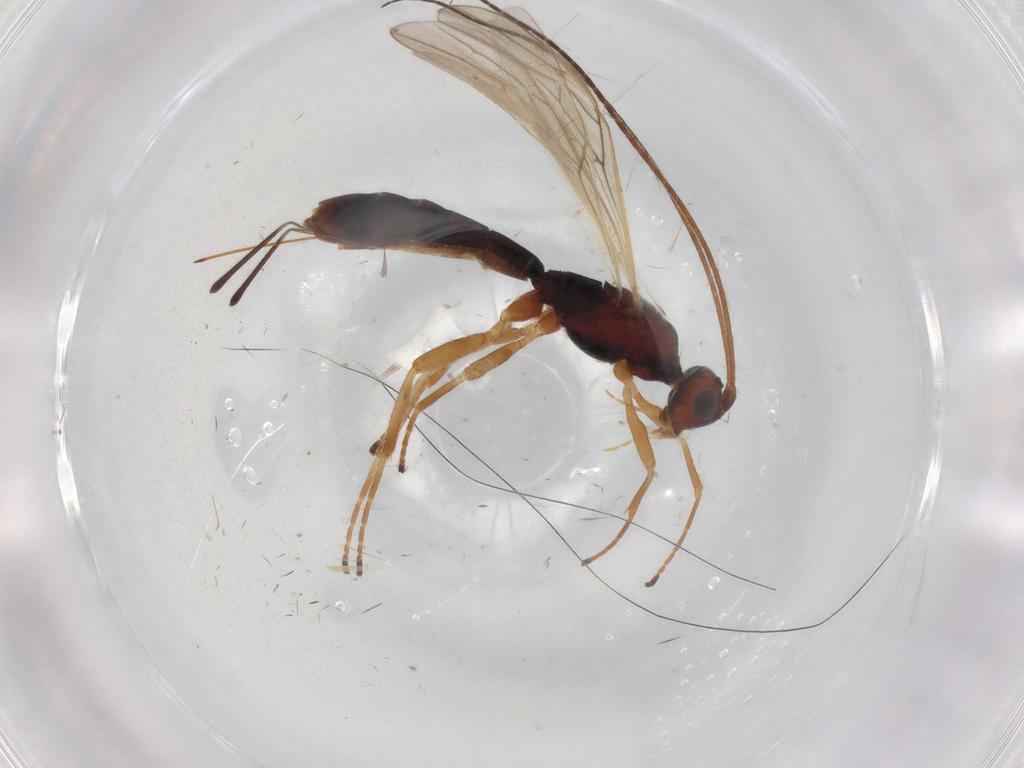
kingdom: Animalia
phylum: Arthropoda
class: Insecta
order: Hymenoptera
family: Braconidae
